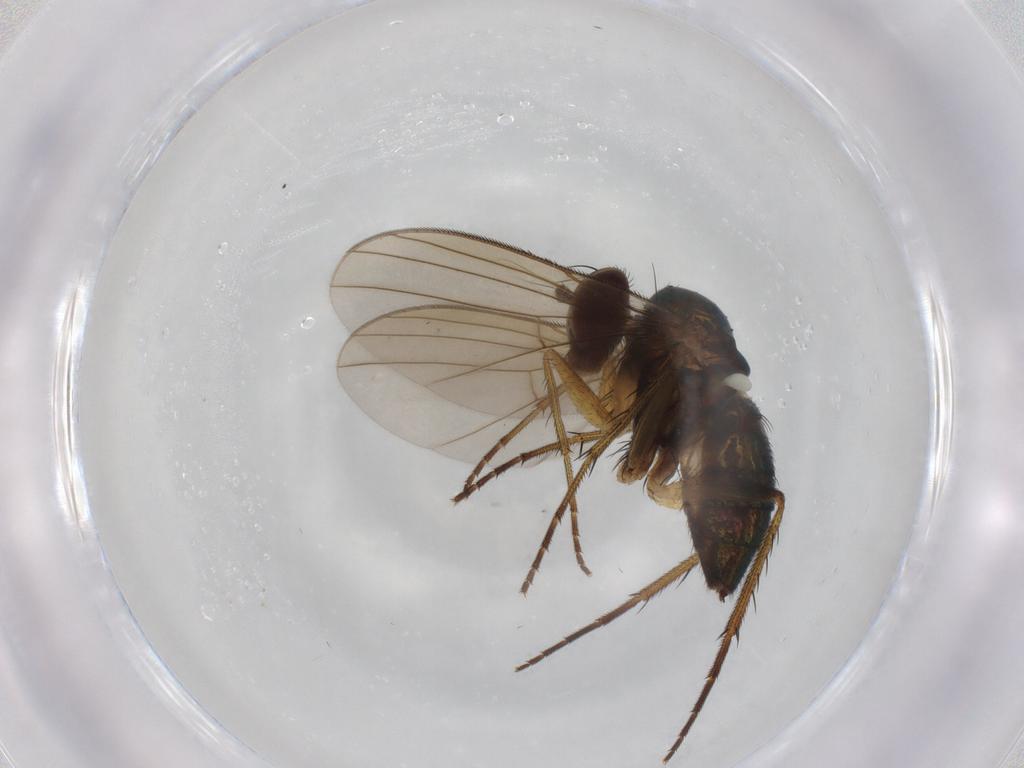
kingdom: Animalia
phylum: Arthropoda
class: Insecta
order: Diptera
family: Dolichopodidae
